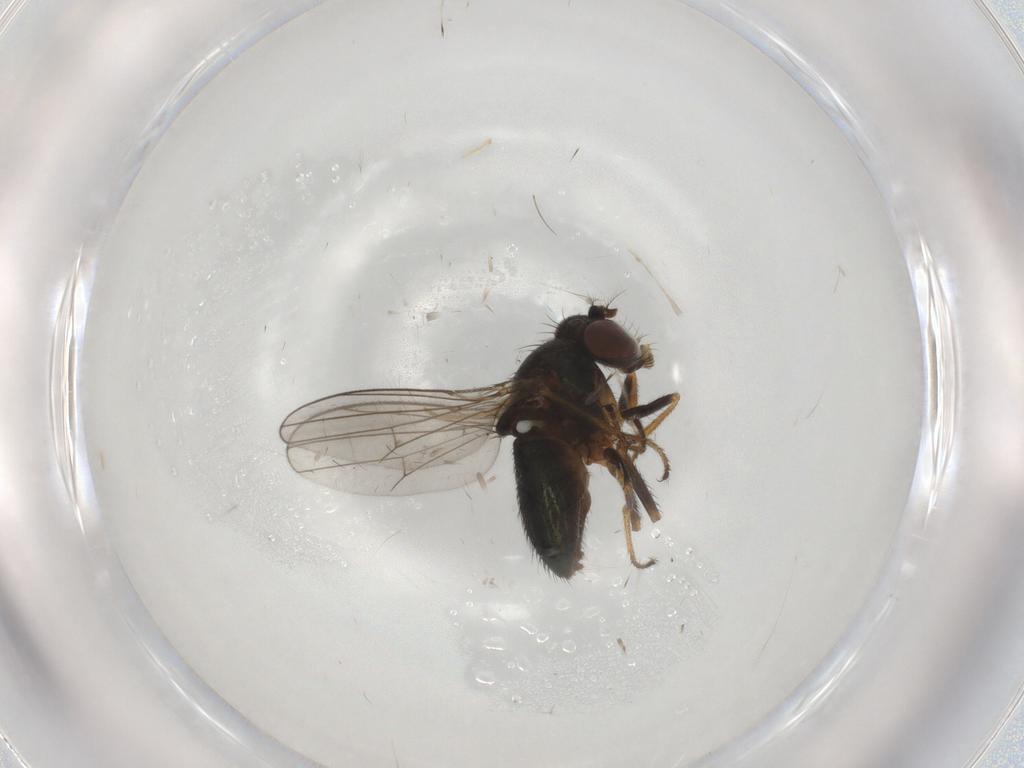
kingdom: Animalia
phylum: Arthropoda
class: Insecta
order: Diptera
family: Ephydridae
